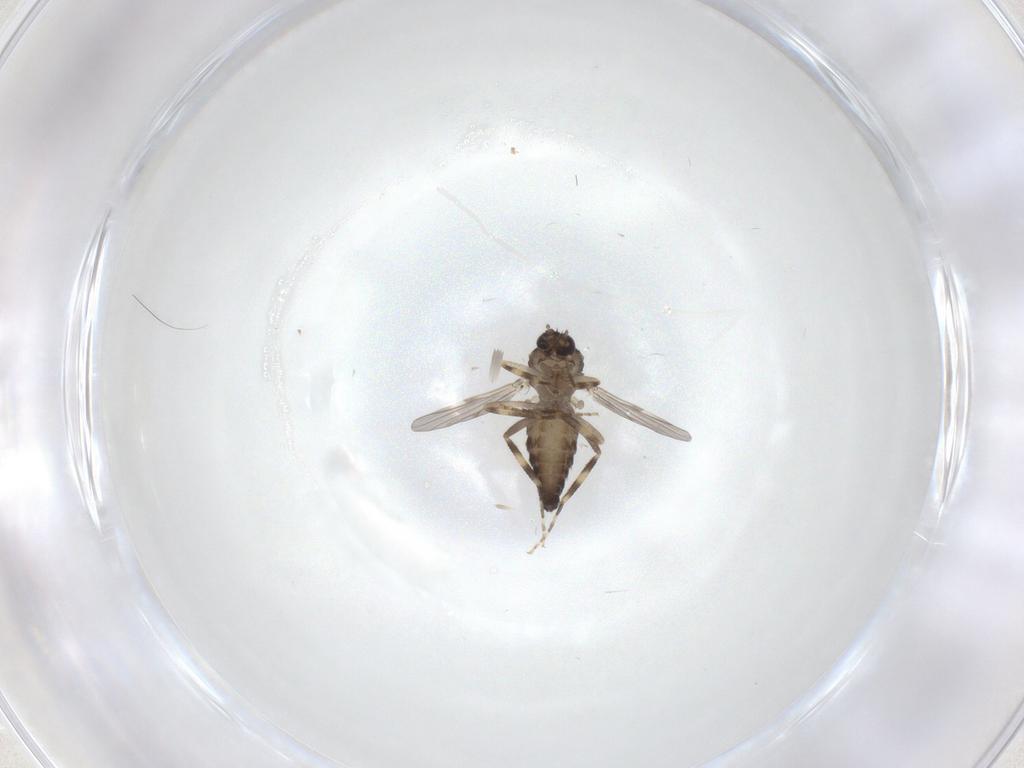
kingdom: Animalia
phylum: Arthropoda
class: Insecta
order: Diptera
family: Ceratopogonidae
